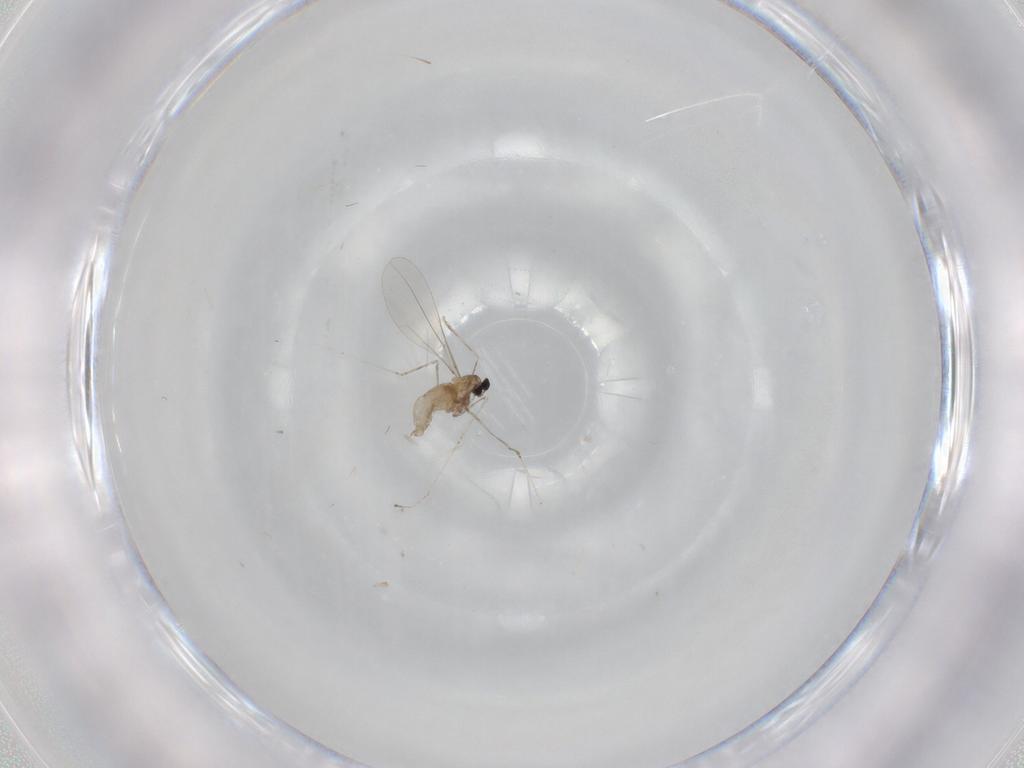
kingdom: Animalia
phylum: Arthropoda
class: Insecta
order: Diptera
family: Cecidomyiidae
